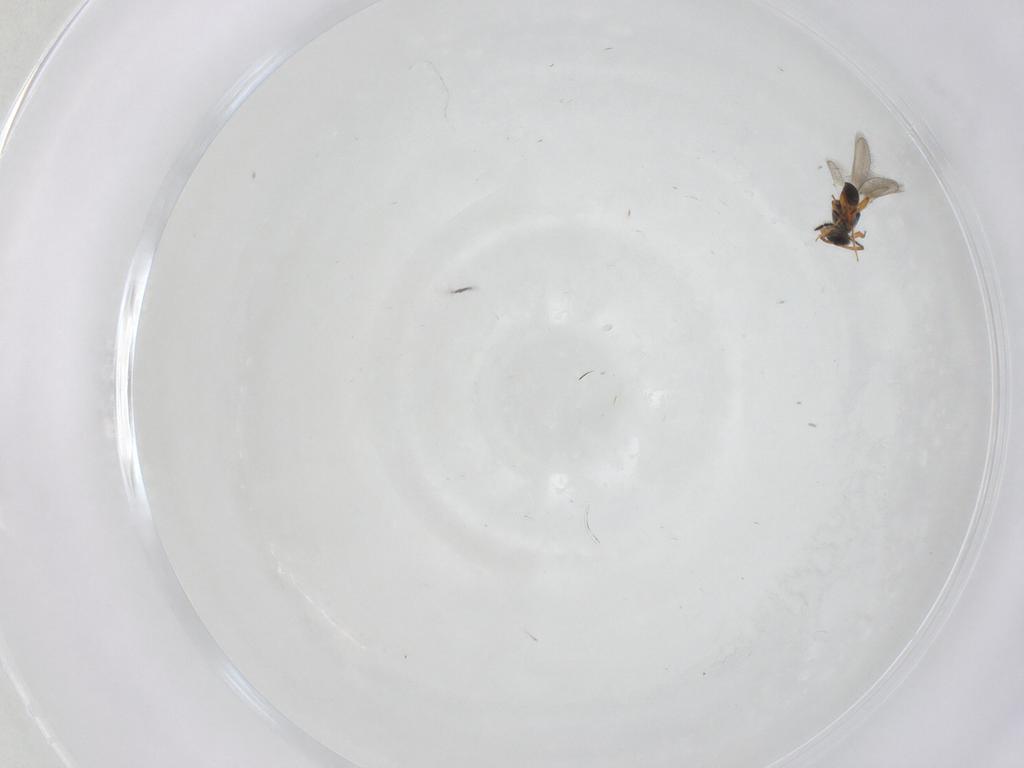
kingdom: Animalia
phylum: Arthropoda
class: Insecta
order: Hymenoptera
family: Platygastridae
